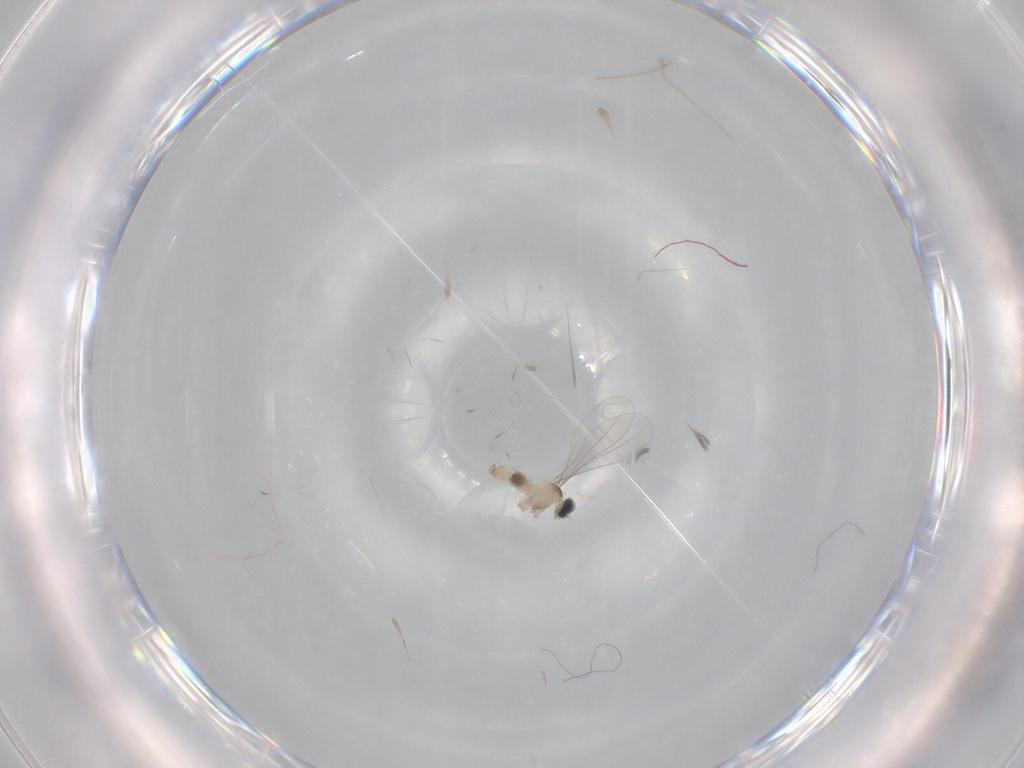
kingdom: Animalia
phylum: Arthropoda
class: Insecta
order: Diptera
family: Cecidomyiidae
